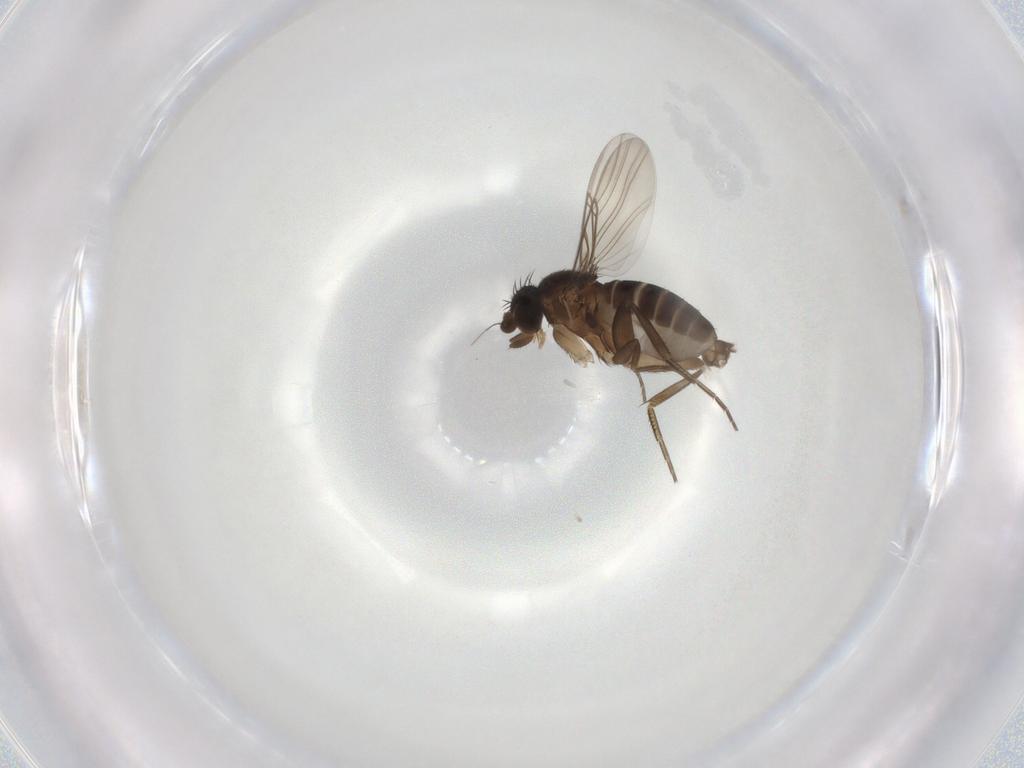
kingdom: Animalia
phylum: Arthropoda
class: Insecta
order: Diptera
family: Phoridae
